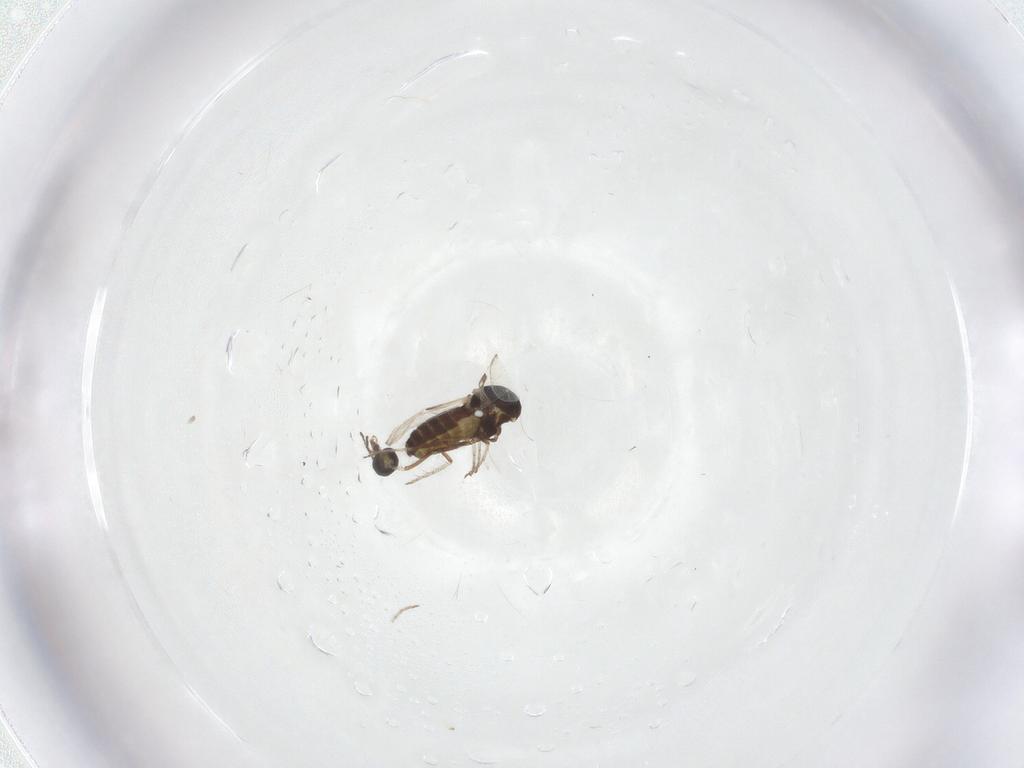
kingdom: Animalia
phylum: Arthropoda
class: Insecta
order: Diptera
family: Ceratopogonidae
